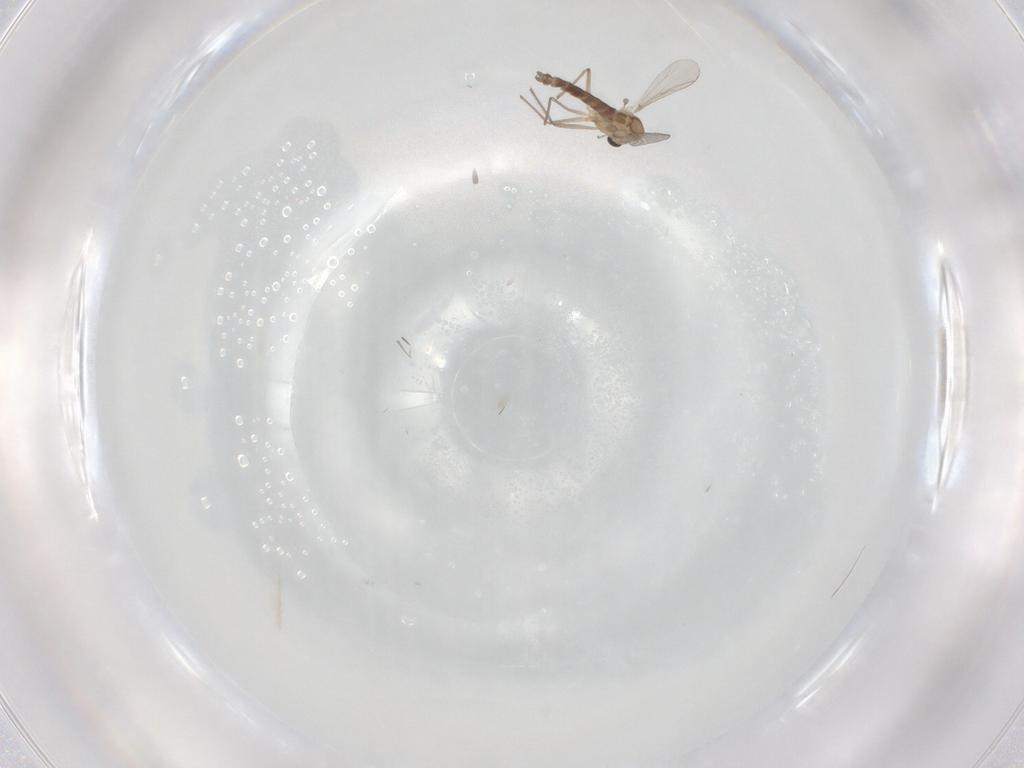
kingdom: Animalia
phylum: Arthropoda
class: Insecta
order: Diptera
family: Chironomidae
